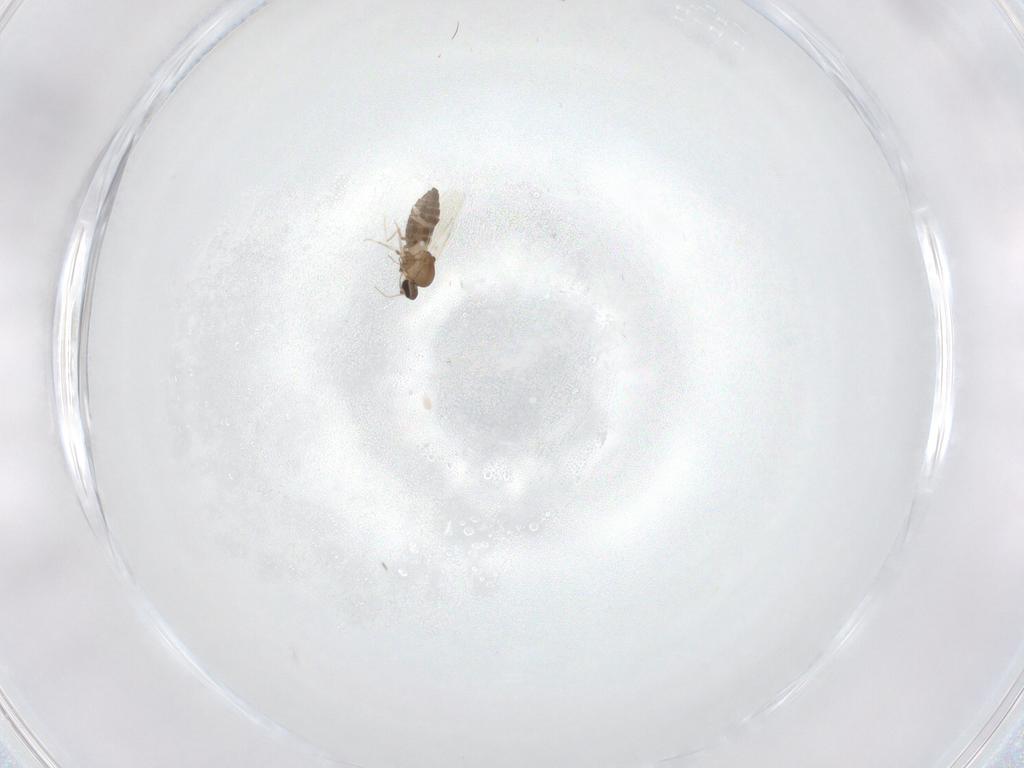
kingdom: Animalia
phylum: Arthropoda
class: Insecta
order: Diptera
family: Ceratopogonidae
